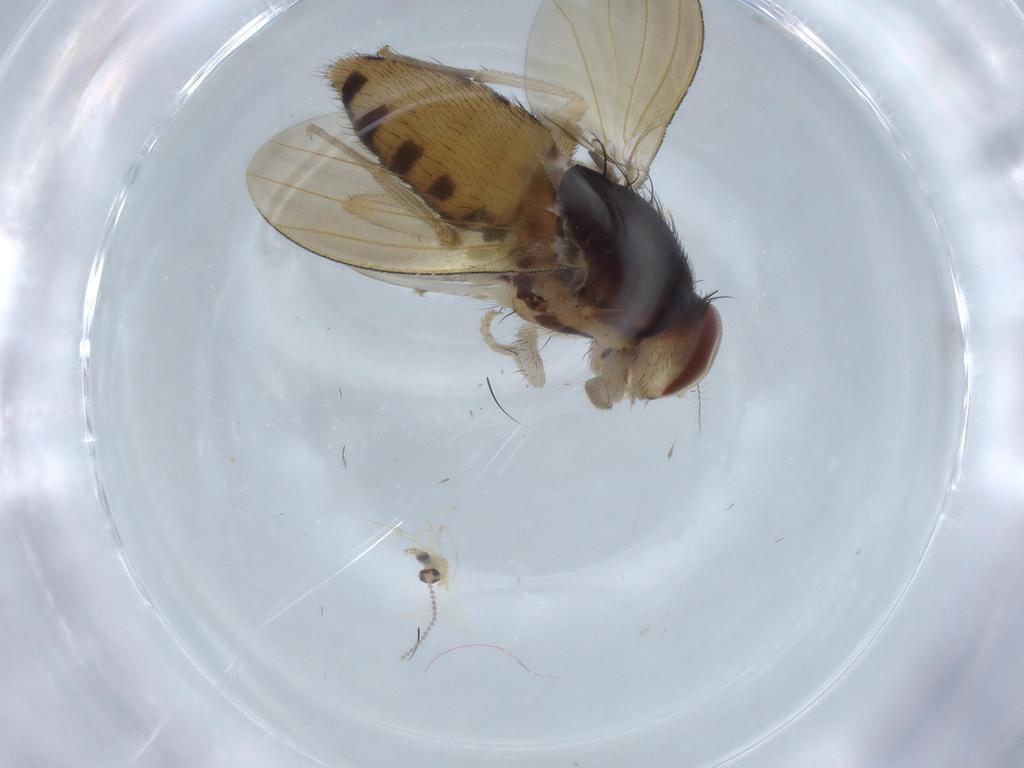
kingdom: Animalia
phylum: Arthropoda
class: Insecta
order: Diptera
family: Cecidomyiidae
